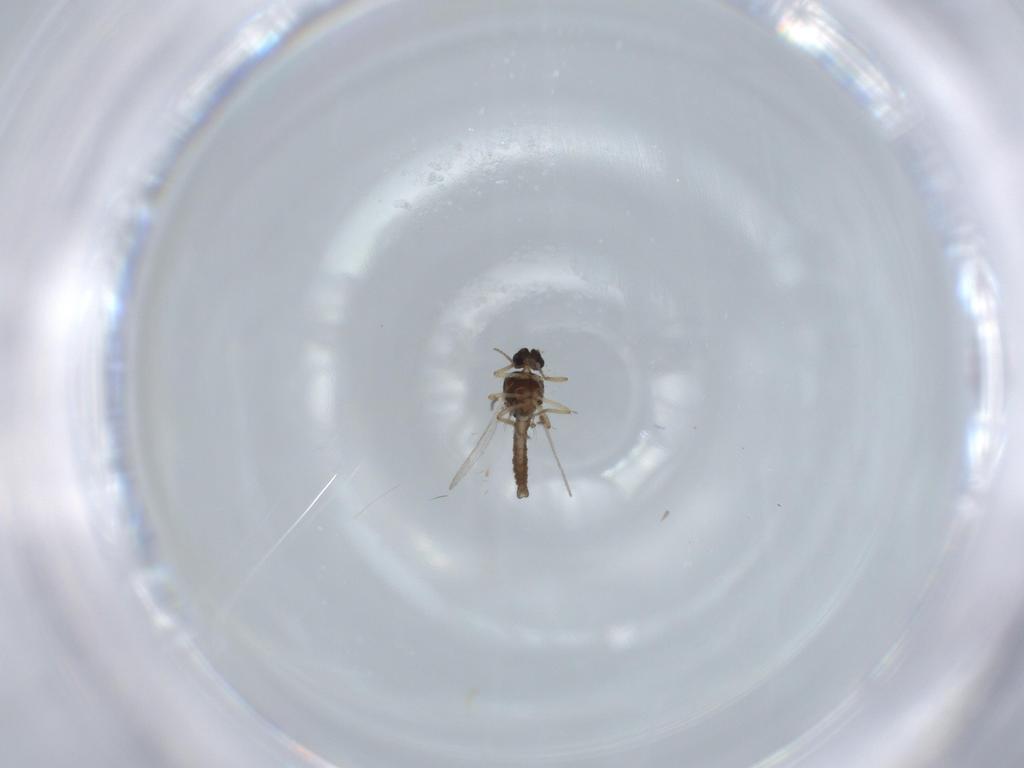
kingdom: Animalia
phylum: Arthropoda
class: Insecta
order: Diptera
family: Ceratopogonidae
